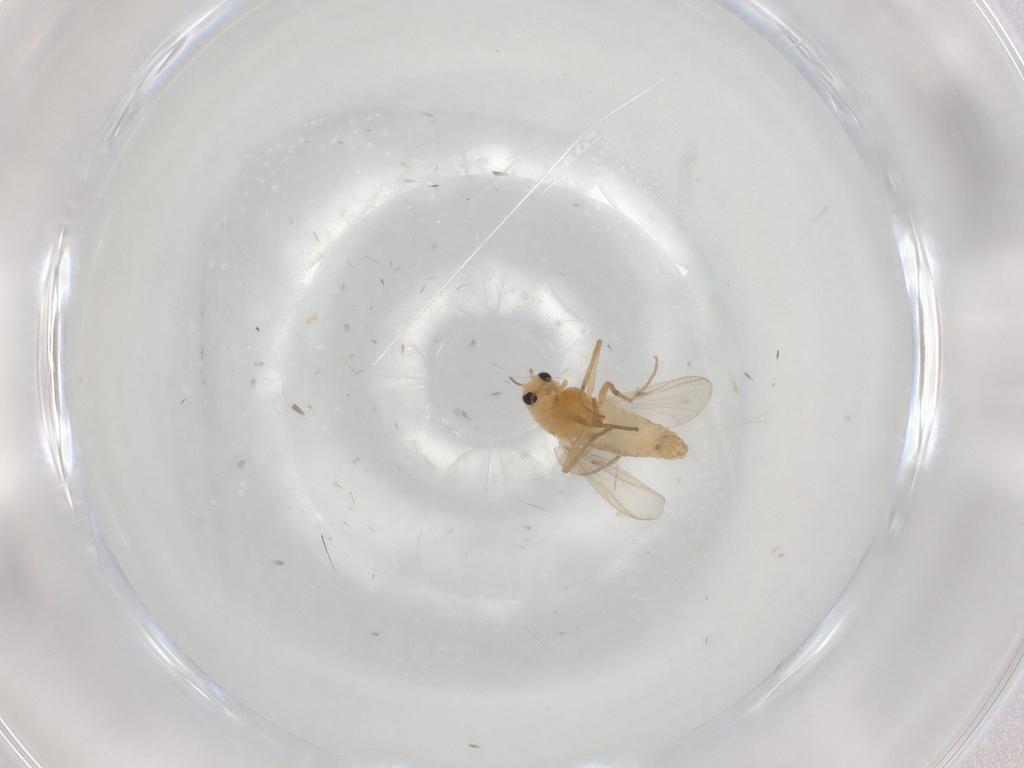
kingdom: Animalia
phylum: Arthropoda
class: Insecta
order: Diptera
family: Chironomidae
